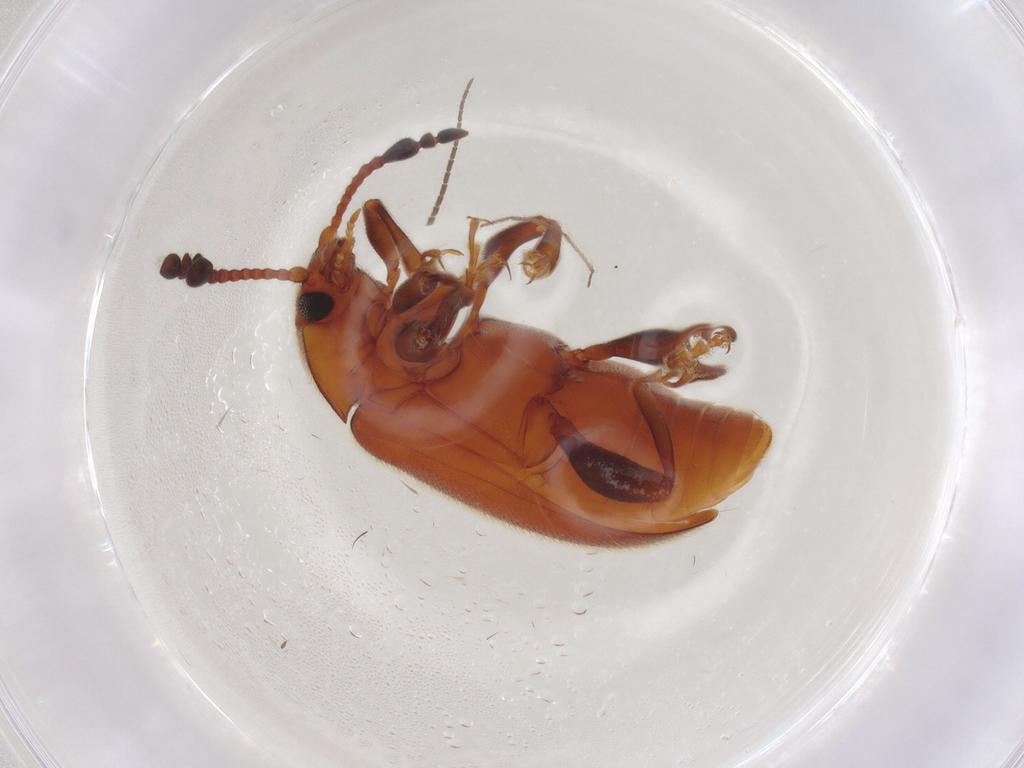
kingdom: Animalia
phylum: Arthropoda
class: Insecta
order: Coleoptera
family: Endomychidae
